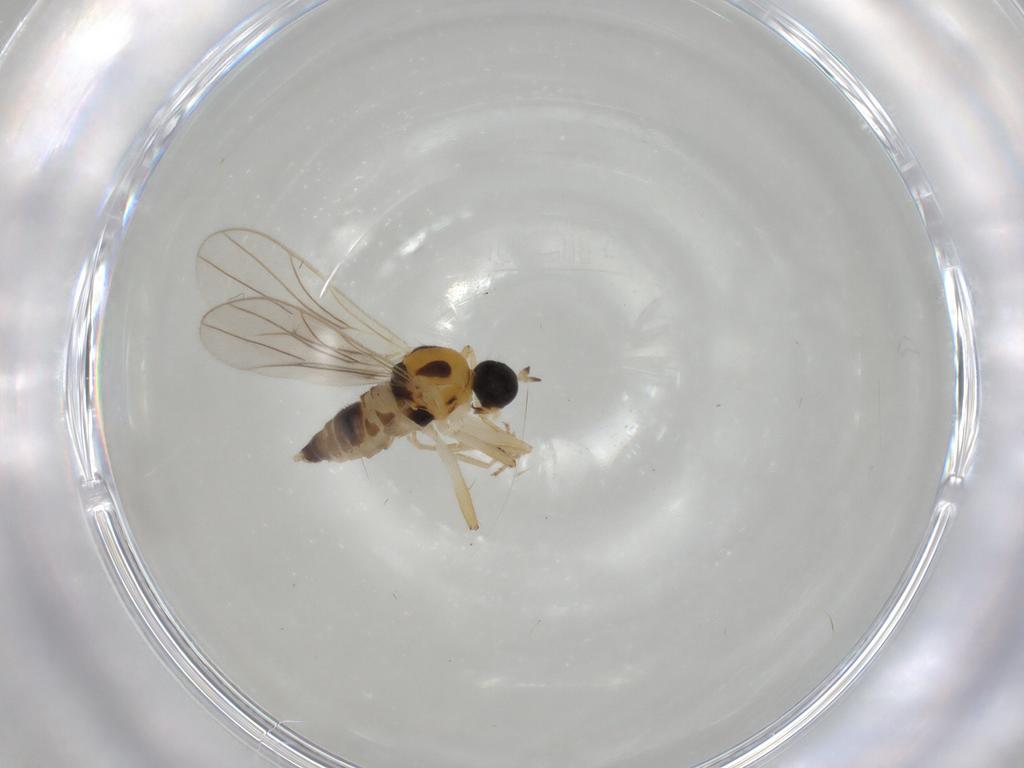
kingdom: Animalia
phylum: Arthropoda
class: Insecta
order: Diptera
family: Hybotidae
